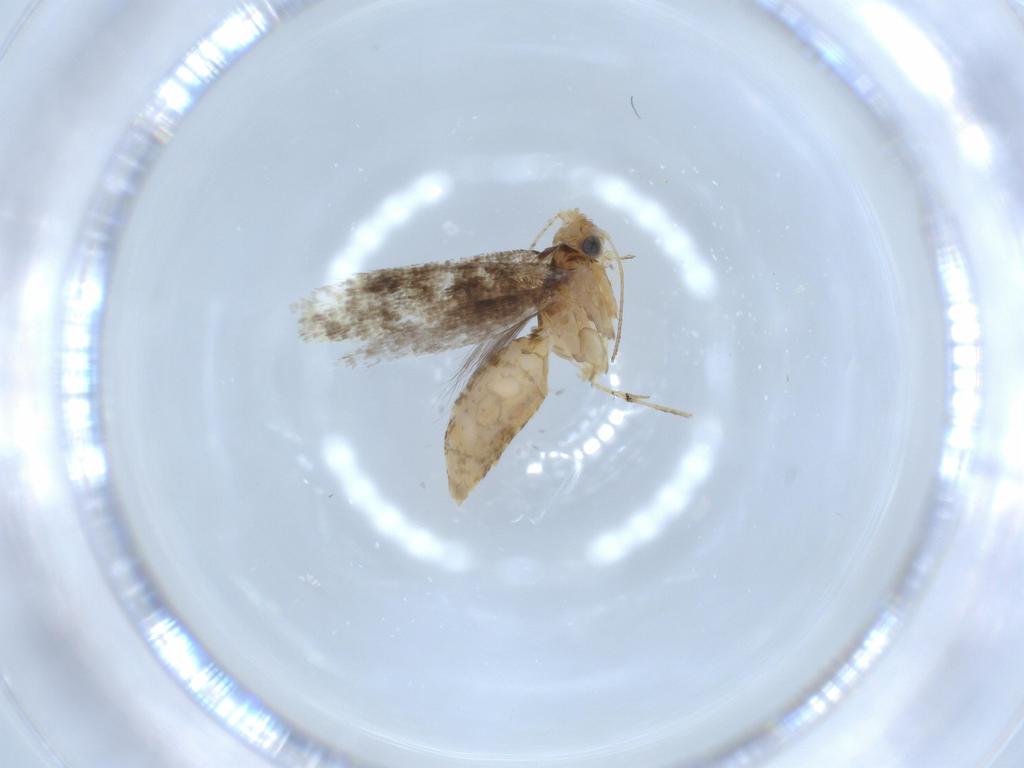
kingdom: Animalia
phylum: Arthropoda
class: Insecta
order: Lepidoptera
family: Argyresthiidae
